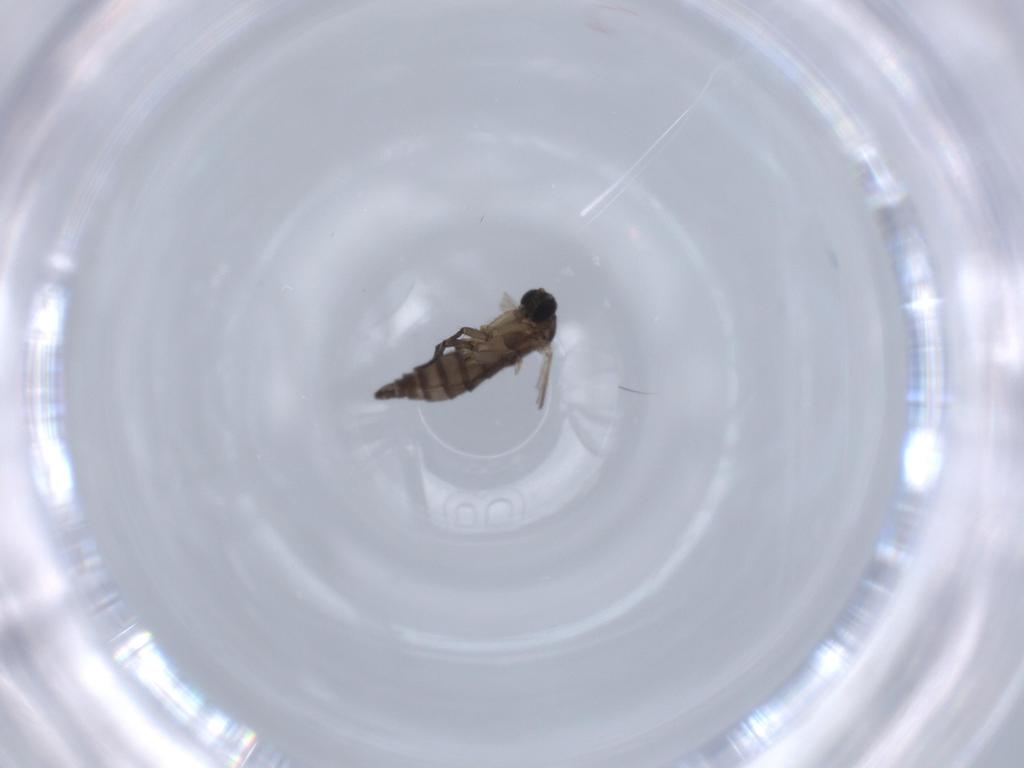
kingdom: Animalia
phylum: Arthropoda
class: Insecta
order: Diptera
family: Sciaridae
